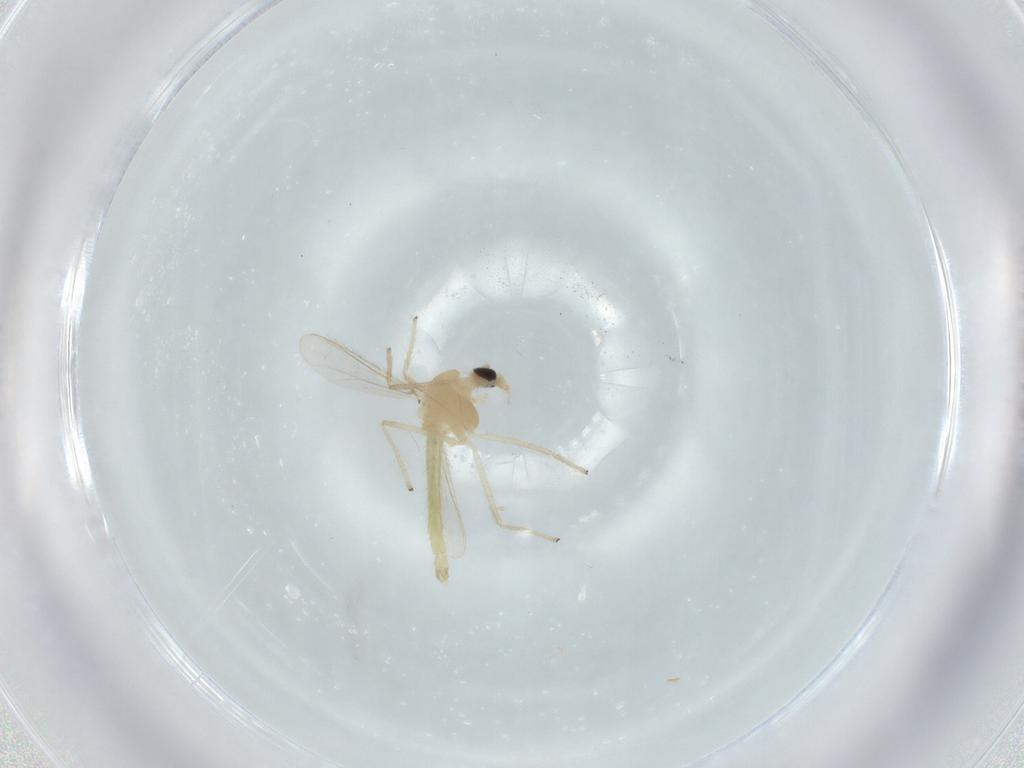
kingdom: Animalia
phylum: Arthropoda
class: Insecta
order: Diptera
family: Chironomidae
